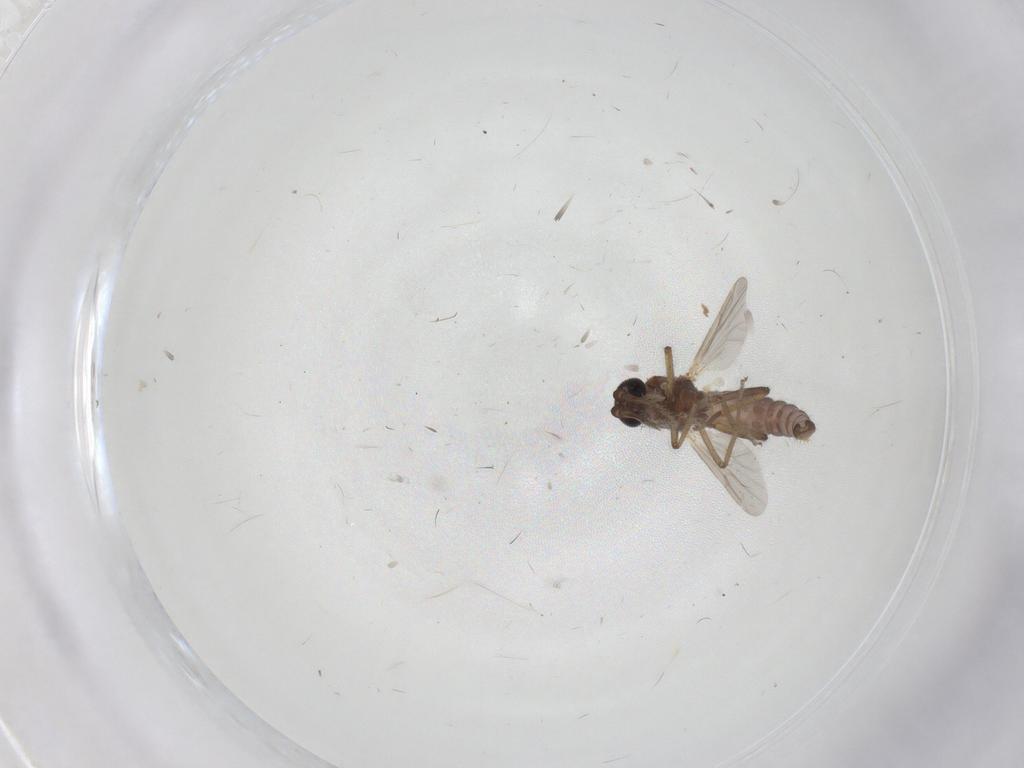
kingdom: Animalia
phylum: Arthropoda
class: Insecta
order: Diptera
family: Ceratopogonidae
